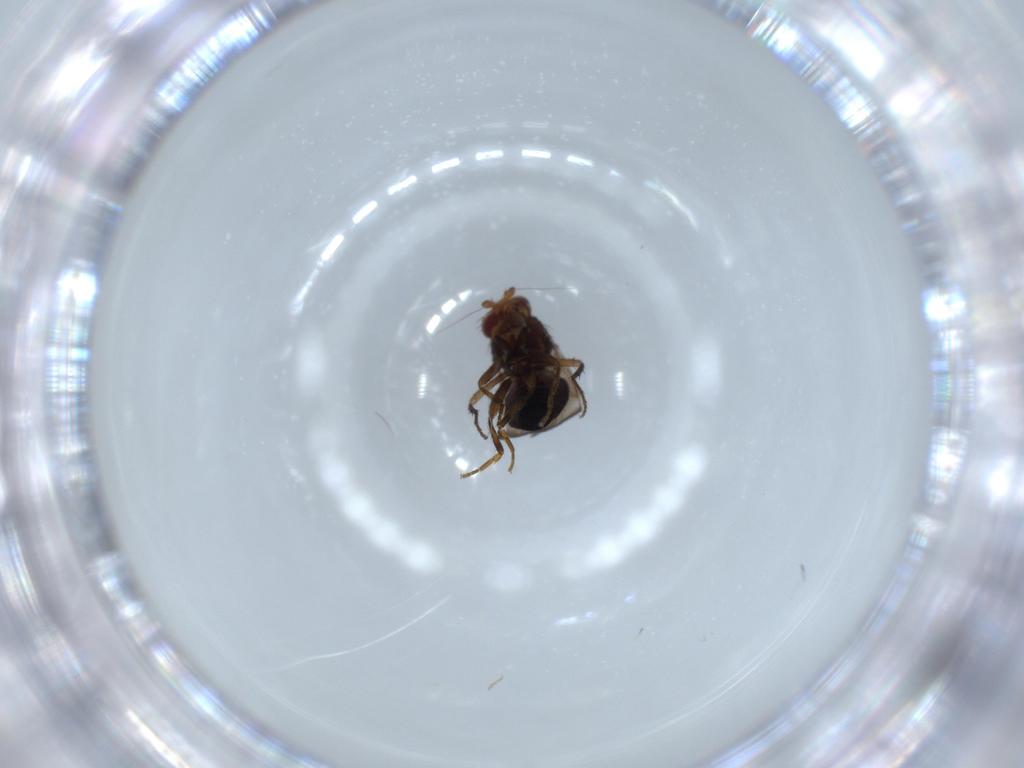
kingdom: Animalia
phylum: Arthropoda
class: Insecta
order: Diptera
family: Sphaeroceridae
